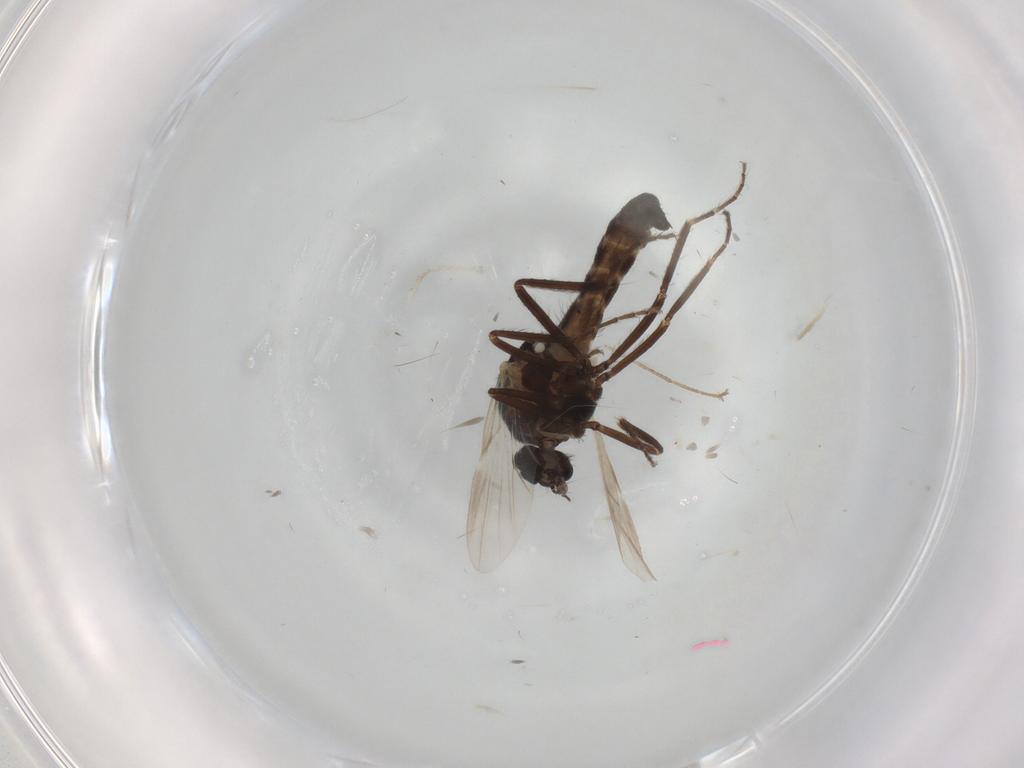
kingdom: Animalia
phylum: Arthropoda
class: Insecta
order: Diptera
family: Ceratopogonidae
